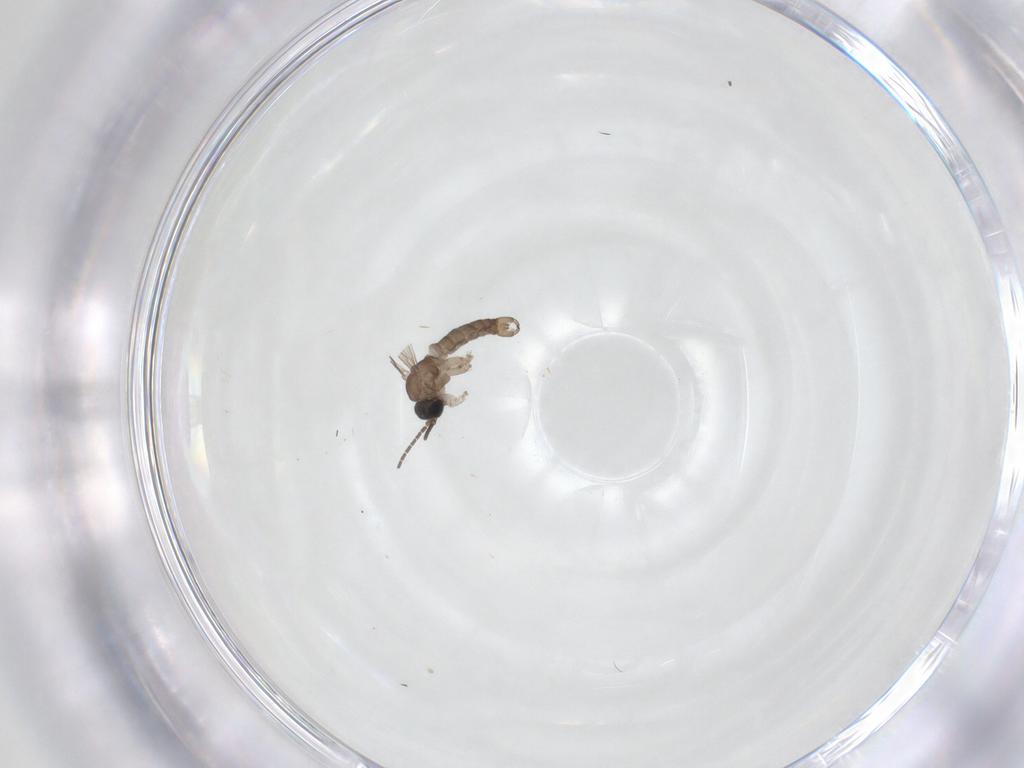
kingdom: Animalia
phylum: Arthropoda
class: Insecta
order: Diptera
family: Sciaridae
